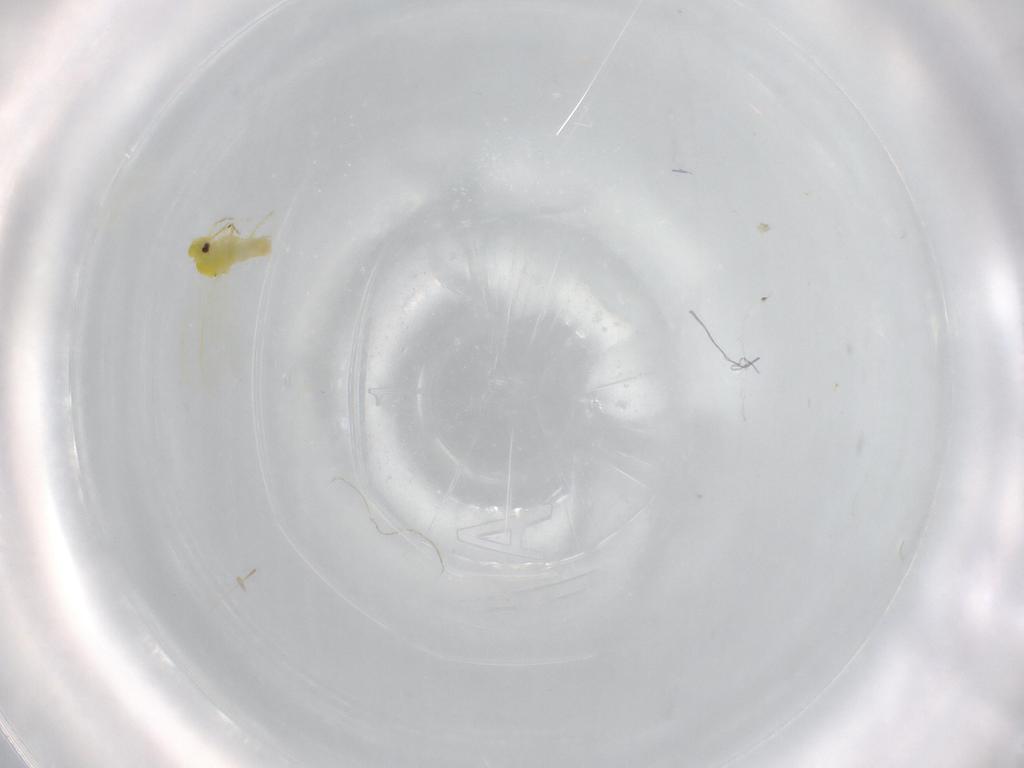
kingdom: Animalia
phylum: Arthropoda
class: Insecta
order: Hemiptera
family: Aleyrodidae
